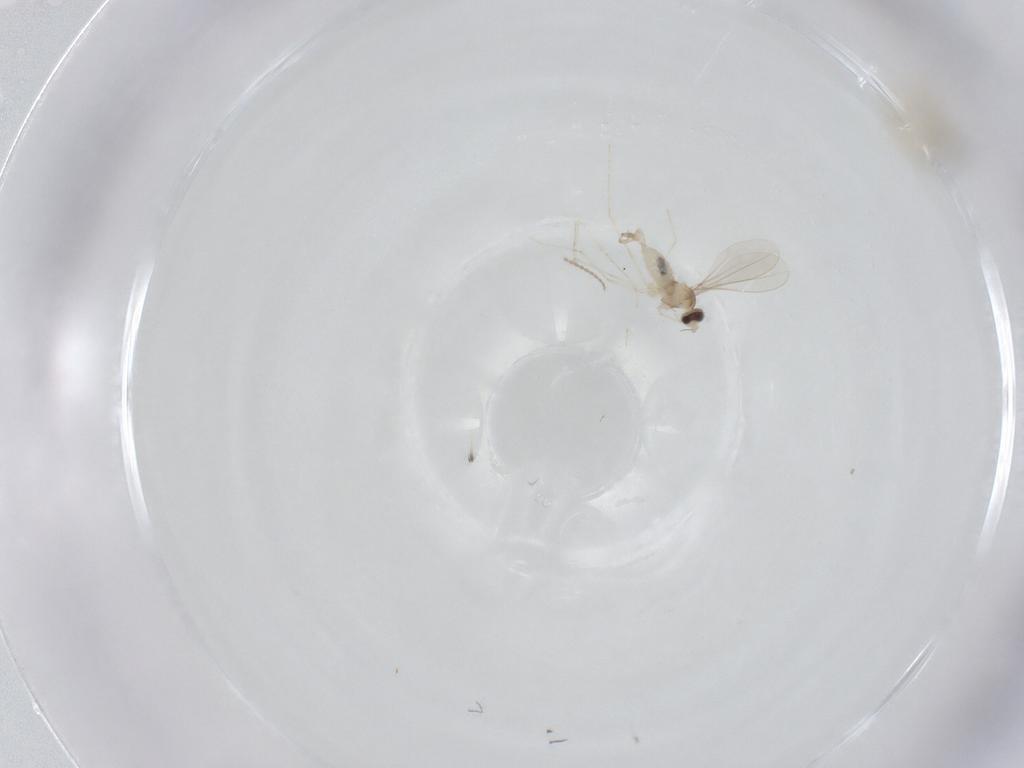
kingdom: Animalia
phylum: Arthropoda
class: Insecta
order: Diptera
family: Cecidomyiidae
